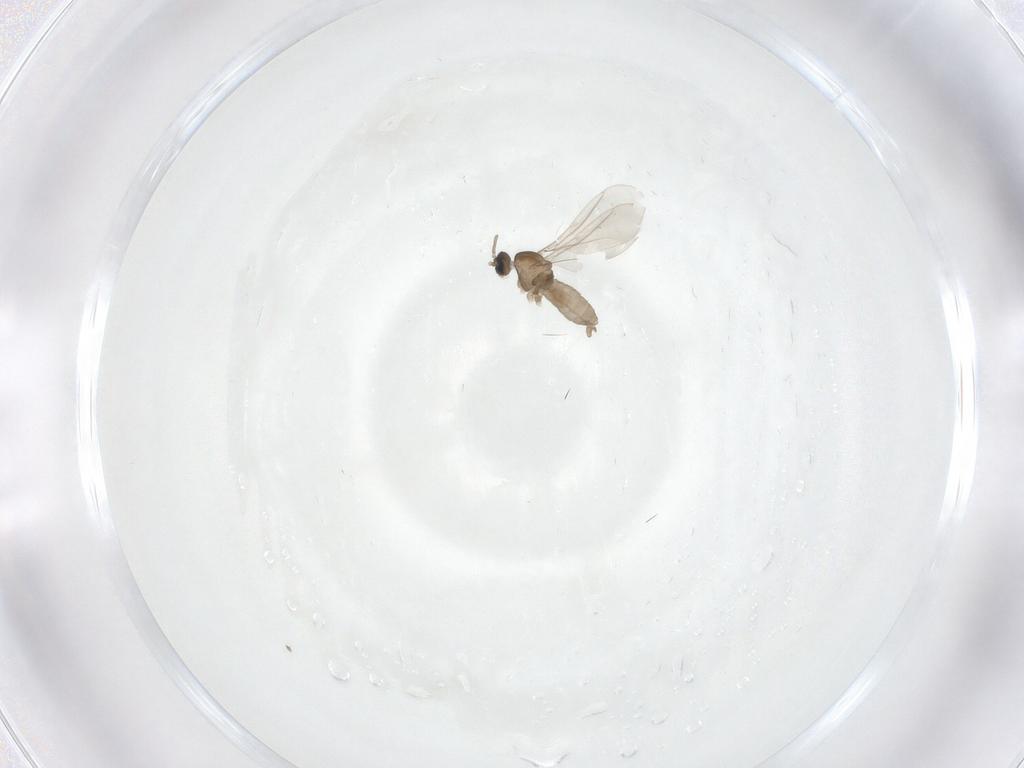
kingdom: Animalia
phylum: Arthropoda
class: Insecta
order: Diptera
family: Cecidomyiidae
